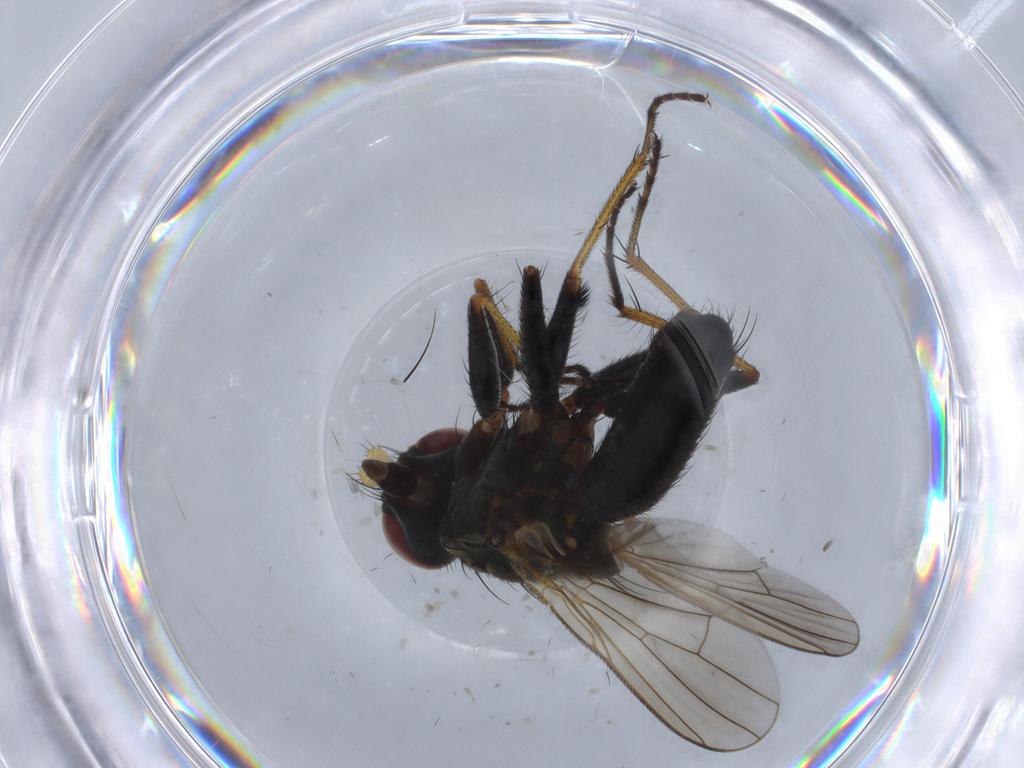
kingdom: Animalia
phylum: Arthropoda
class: Insecta
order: Diptera
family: Muscidae
